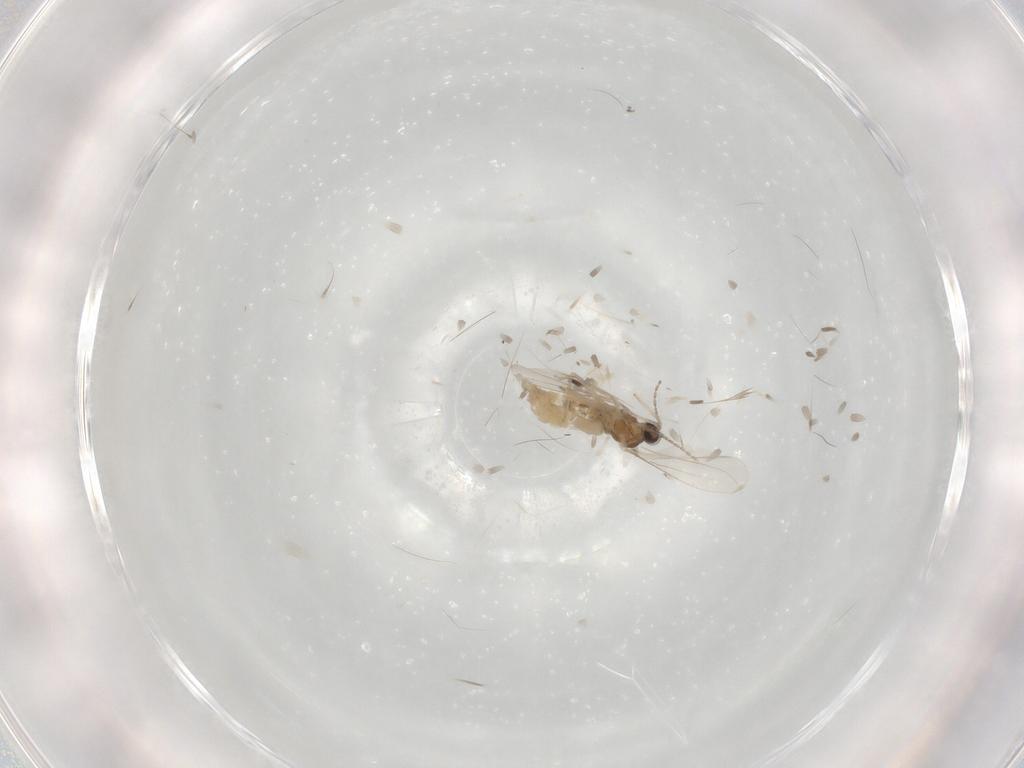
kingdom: Animalia
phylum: Arthropoda
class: Insecta
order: Diptera
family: Cecidomyiidae
